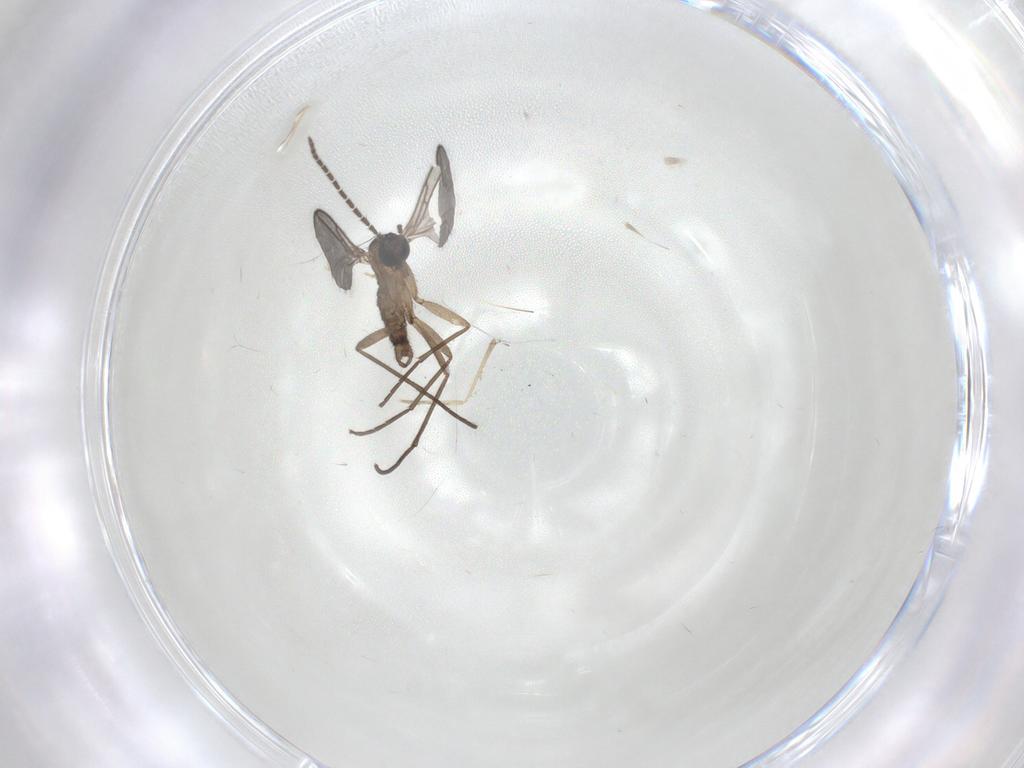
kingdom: Animalia
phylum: Arthropoda
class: Insecta
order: Diptera
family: Sciaridae
